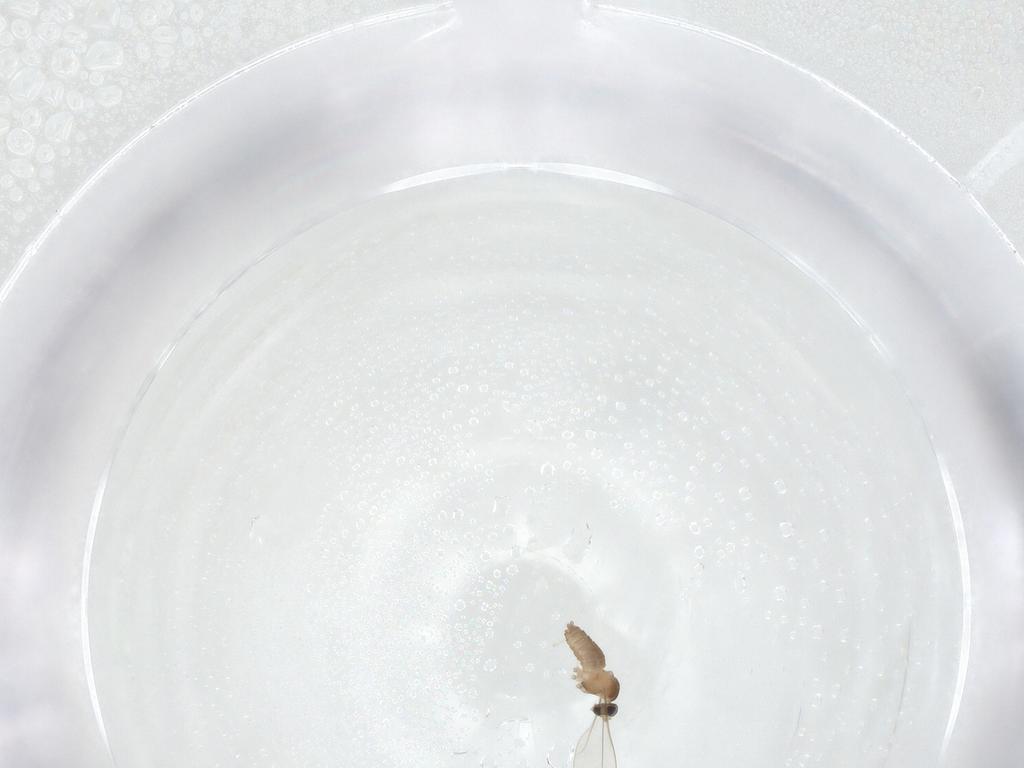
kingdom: Animalia
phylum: Arthropoda
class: Insecta
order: Diptera
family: Cecidomyiidae
